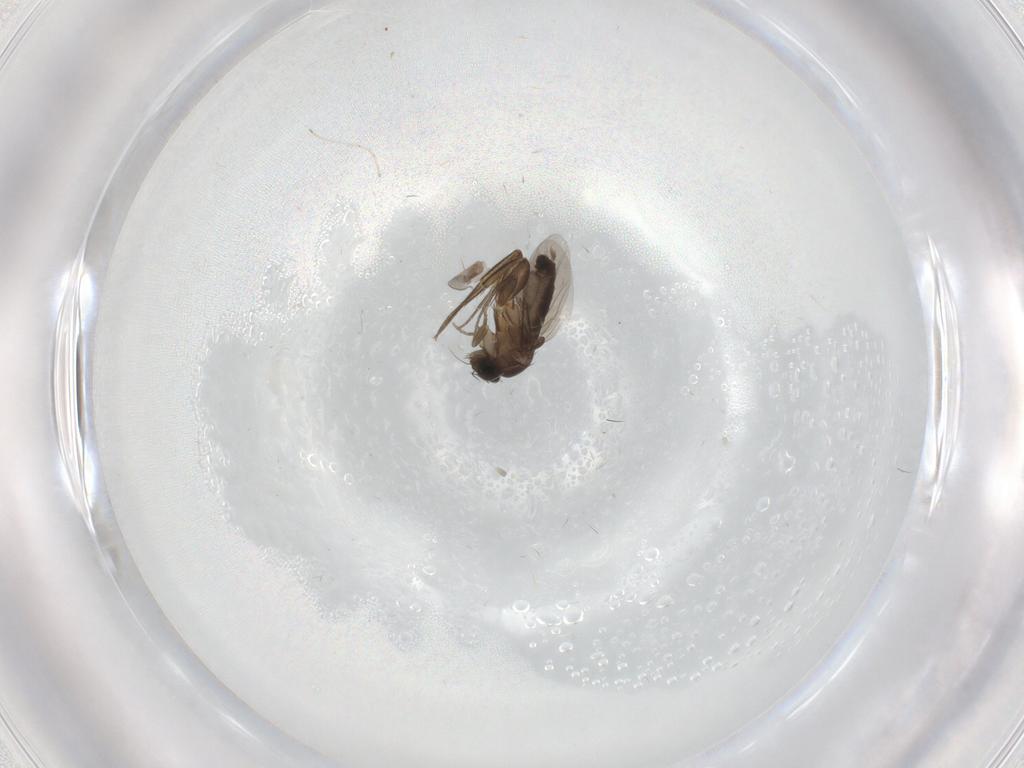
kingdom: Animalia
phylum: Arthropoda
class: Insecta
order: Diptera
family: Phoridae
